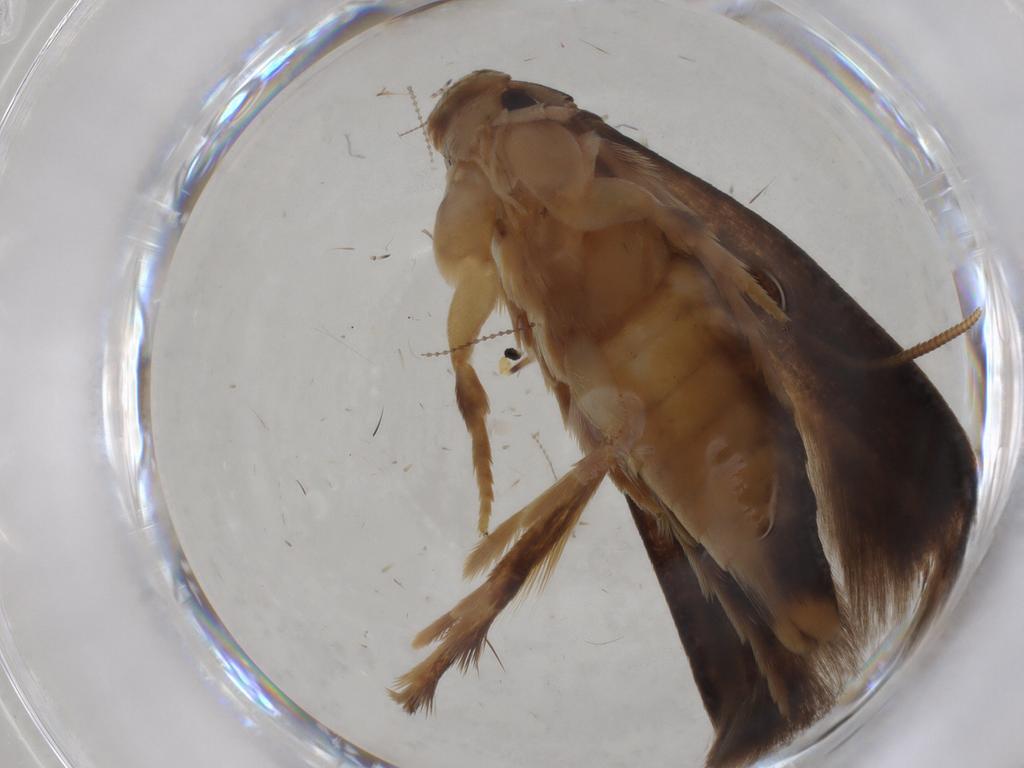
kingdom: Animalia
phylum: Arthropoda
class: Insecta
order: Lepidoptera
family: Tineidae
